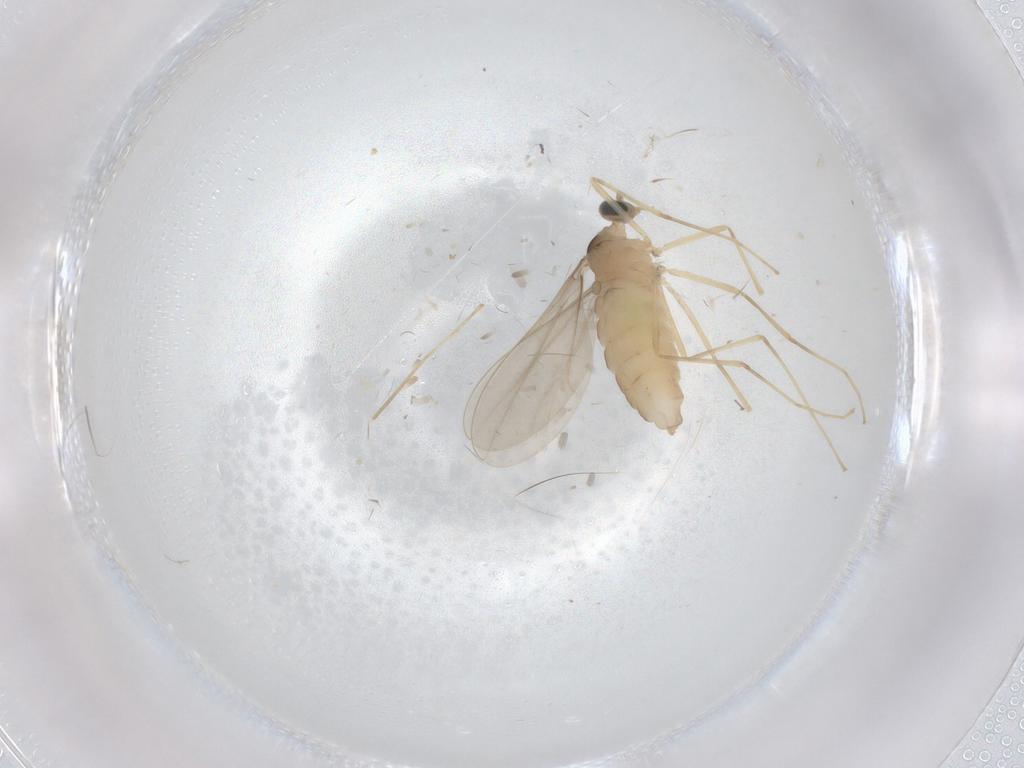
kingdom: Animalia
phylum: Arthropoda
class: Insecta
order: Diptera
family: Cecidomyiidae
